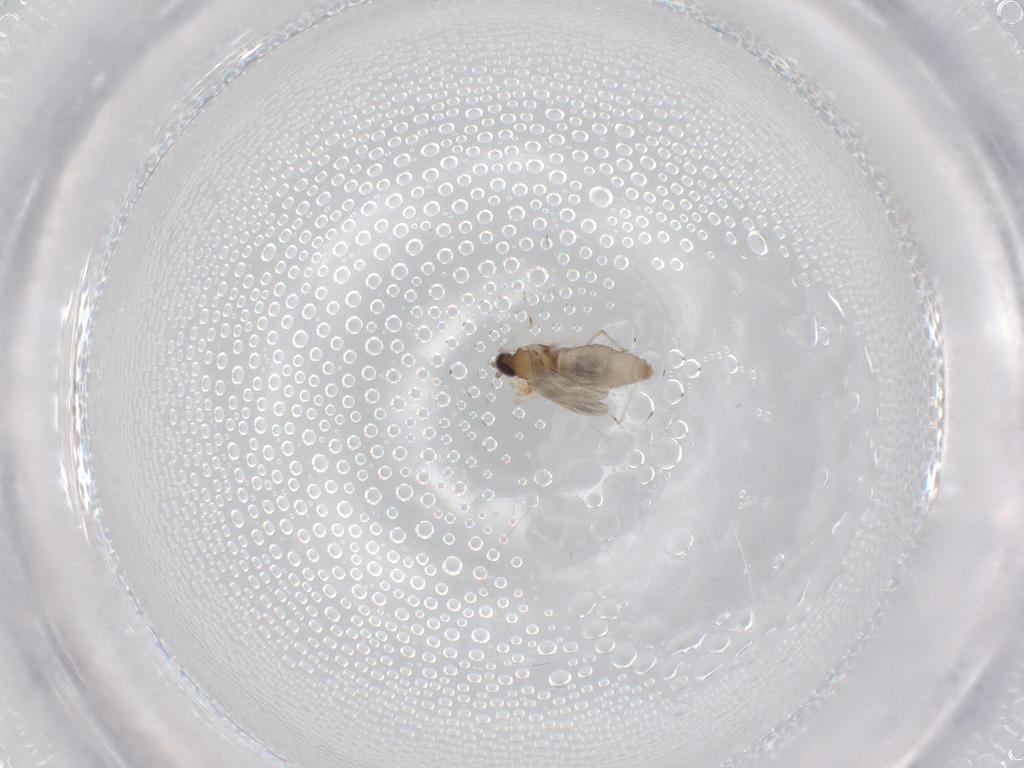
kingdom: Animalia
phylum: Arthropoda
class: Insecta
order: Diptera
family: Cecidomyiidae
